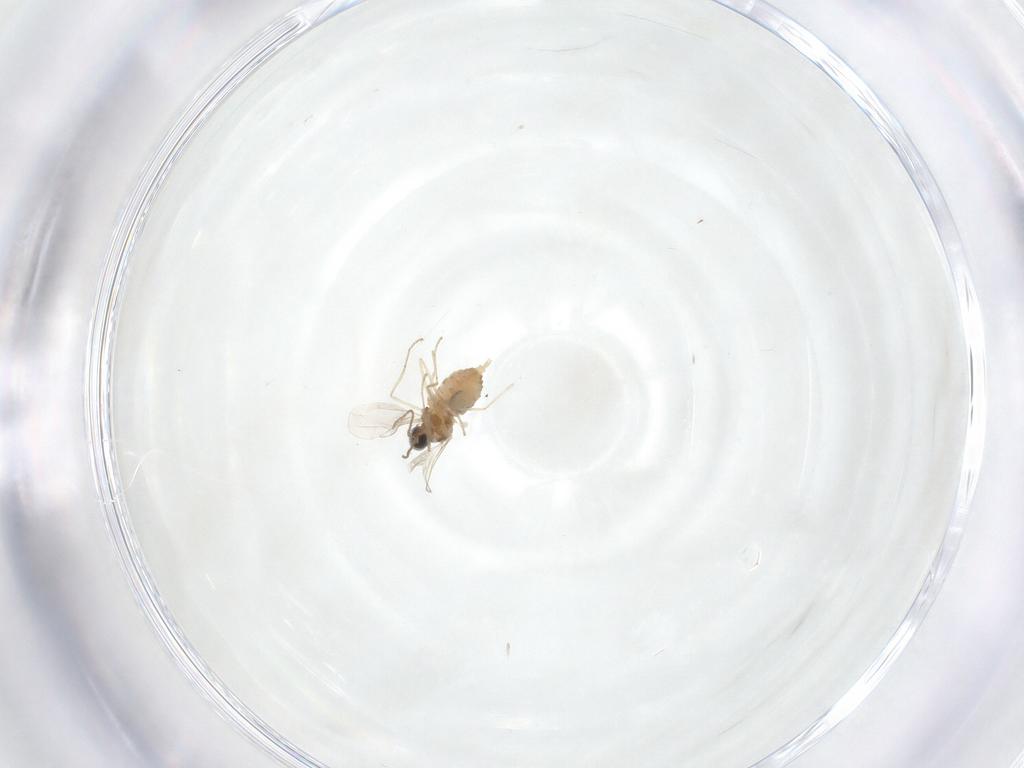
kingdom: Animalia
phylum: Arthropoda
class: Insecta
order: Diptera
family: Cecidomyiidae
